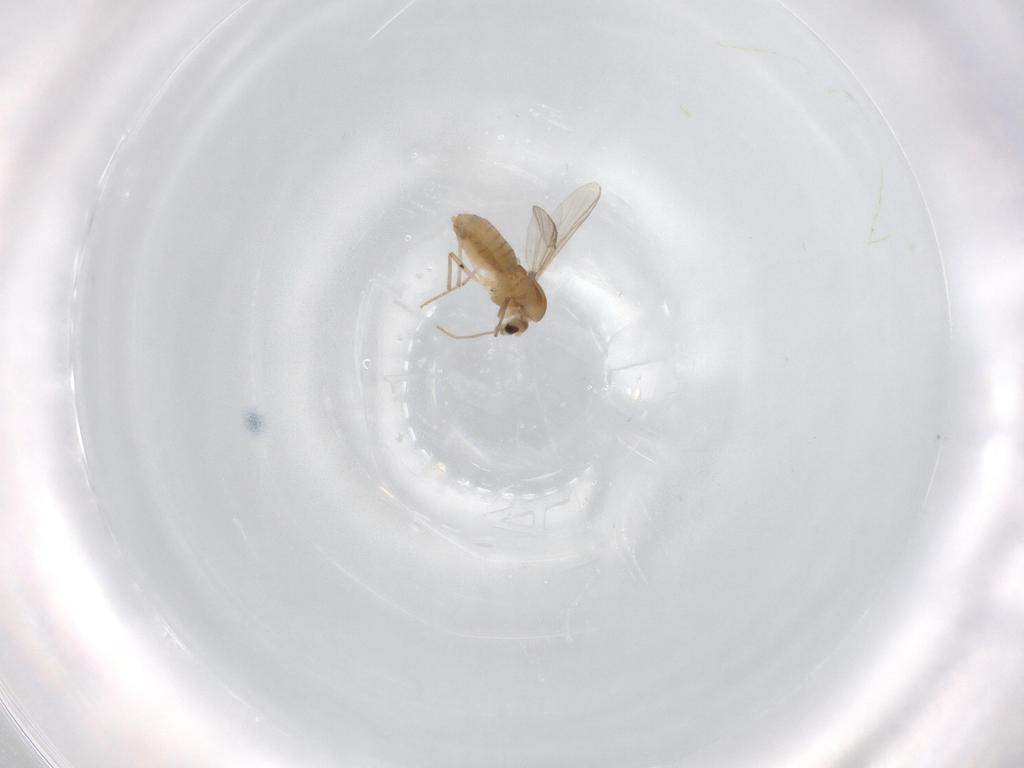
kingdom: Animalia
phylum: Arthropoda
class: Insecta
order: Diptera
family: Chironomidae
